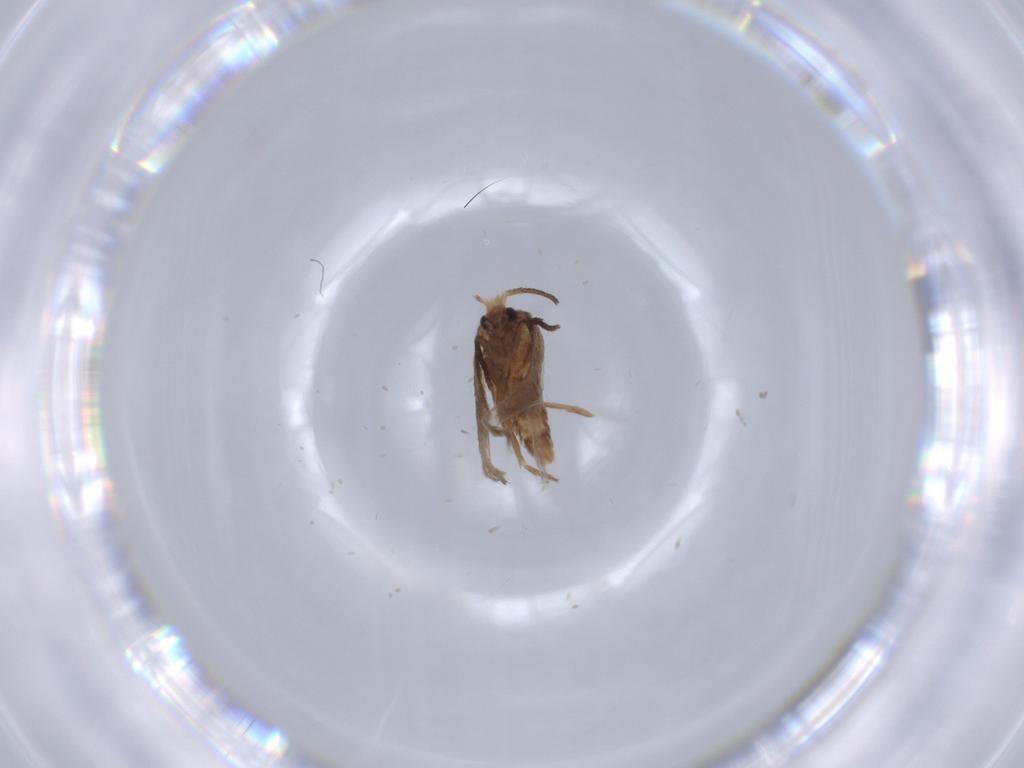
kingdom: Animalia
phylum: Arthropoda
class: Insecta
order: Lepidoptera
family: Nepticulidae
